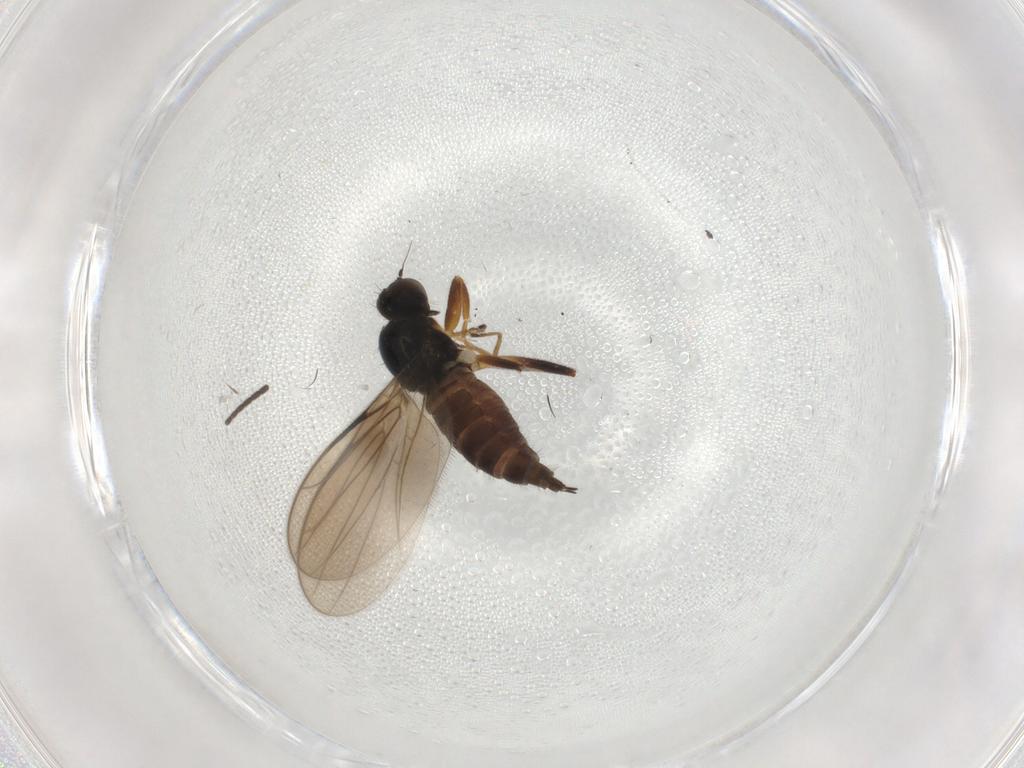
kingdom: Animalia
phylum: Arthropoda
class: Insecta
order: Diptera
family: Hybotidae
